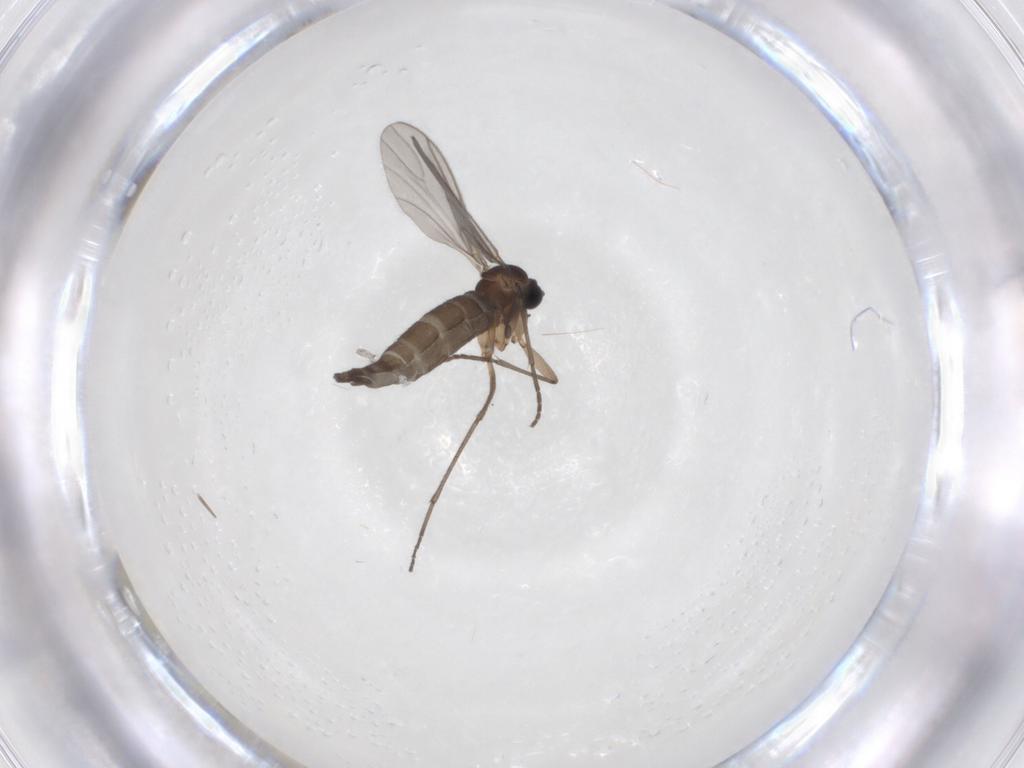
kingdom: Animalia
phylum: Arthropoda
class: Insecta
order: Diptera
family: Sciaridae
